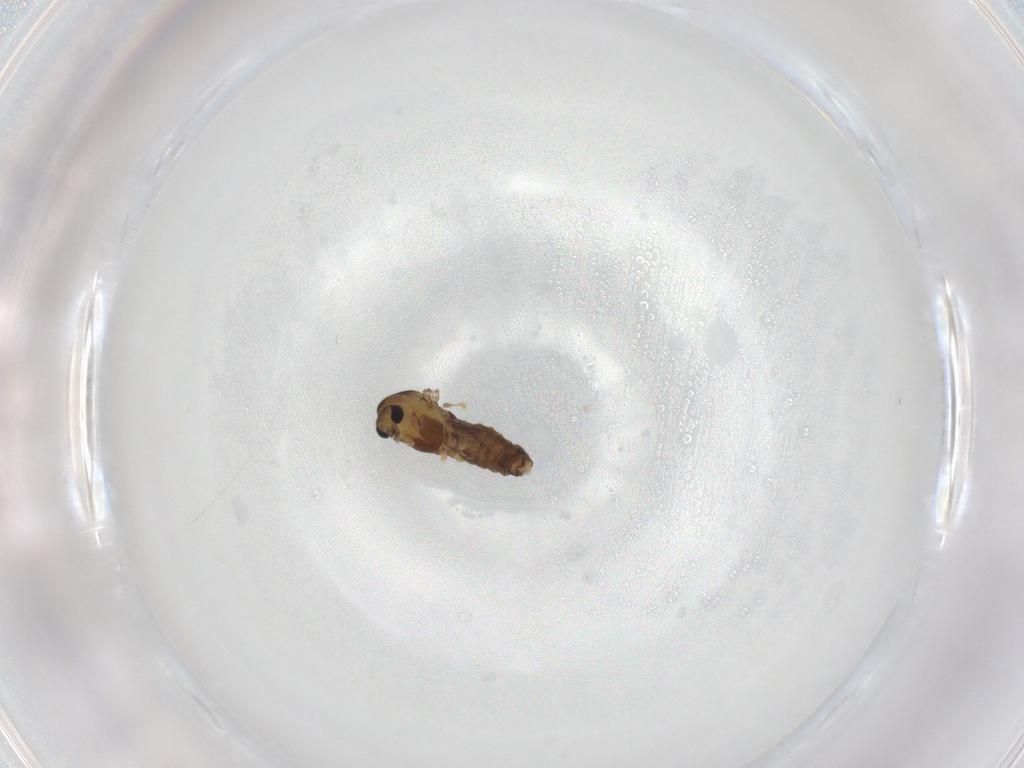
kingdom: Animalia
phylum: Arthropoda
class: Insecta
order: Diptera
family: Chironomidae
